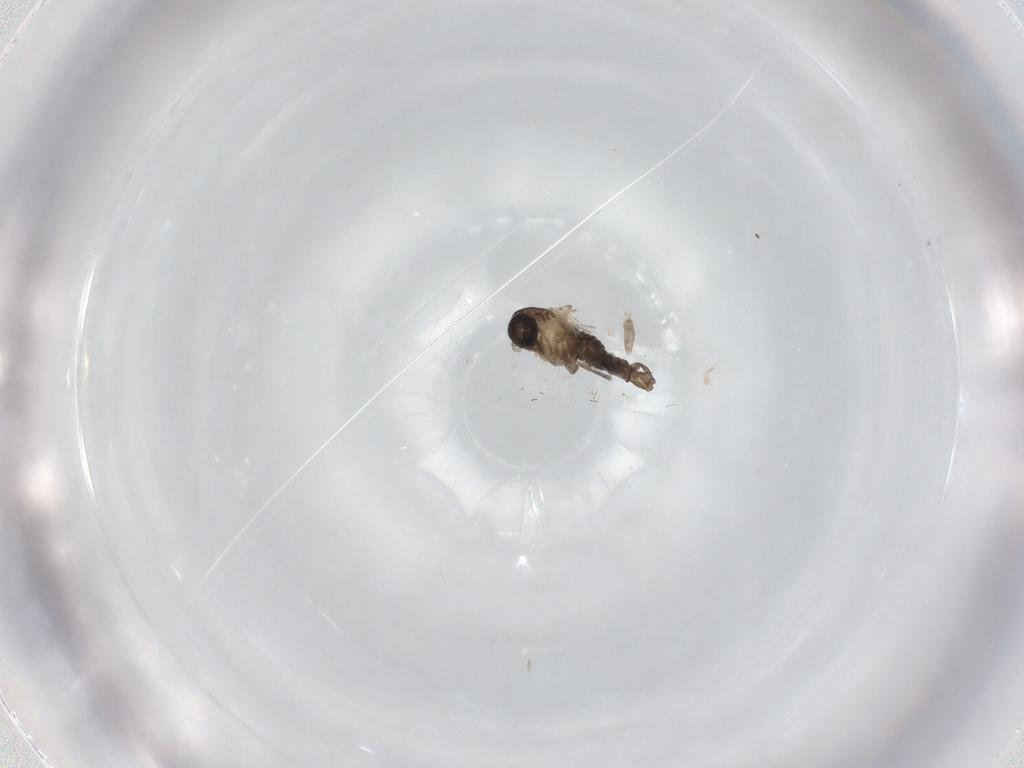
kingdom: Animalia
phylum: Arthropoda
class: Insecta
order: Diptera
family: Psychodidae
